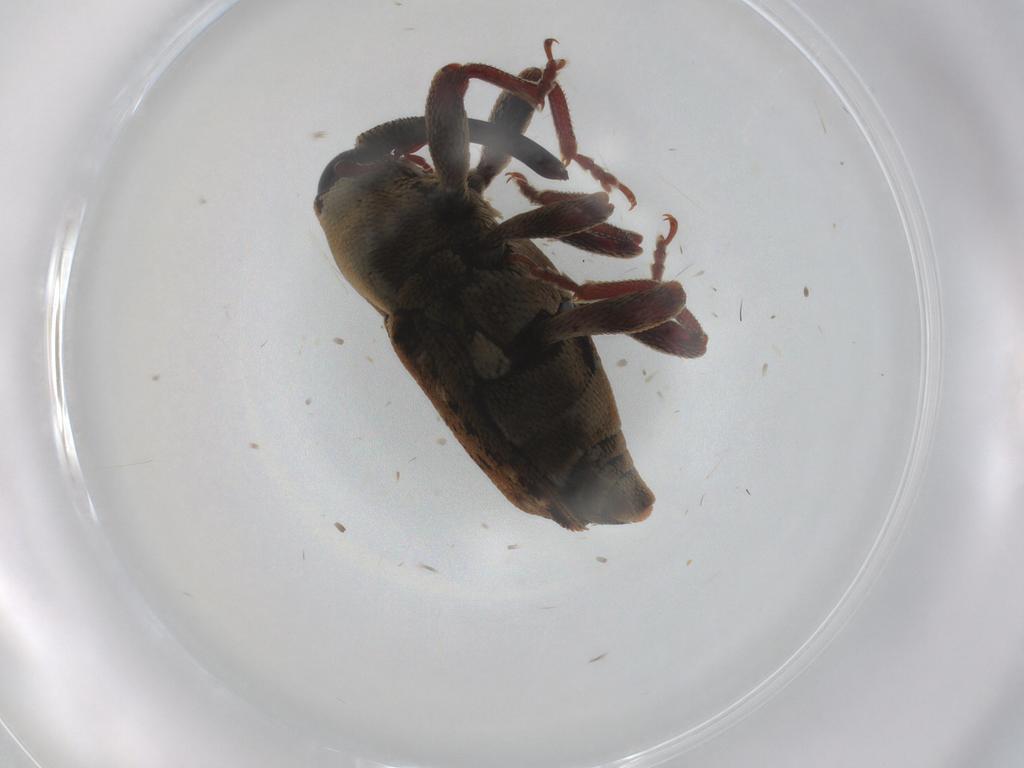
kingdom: Animalia
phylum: Arthropoda
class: Insecta
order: Coleoptera
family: Curculionidae
